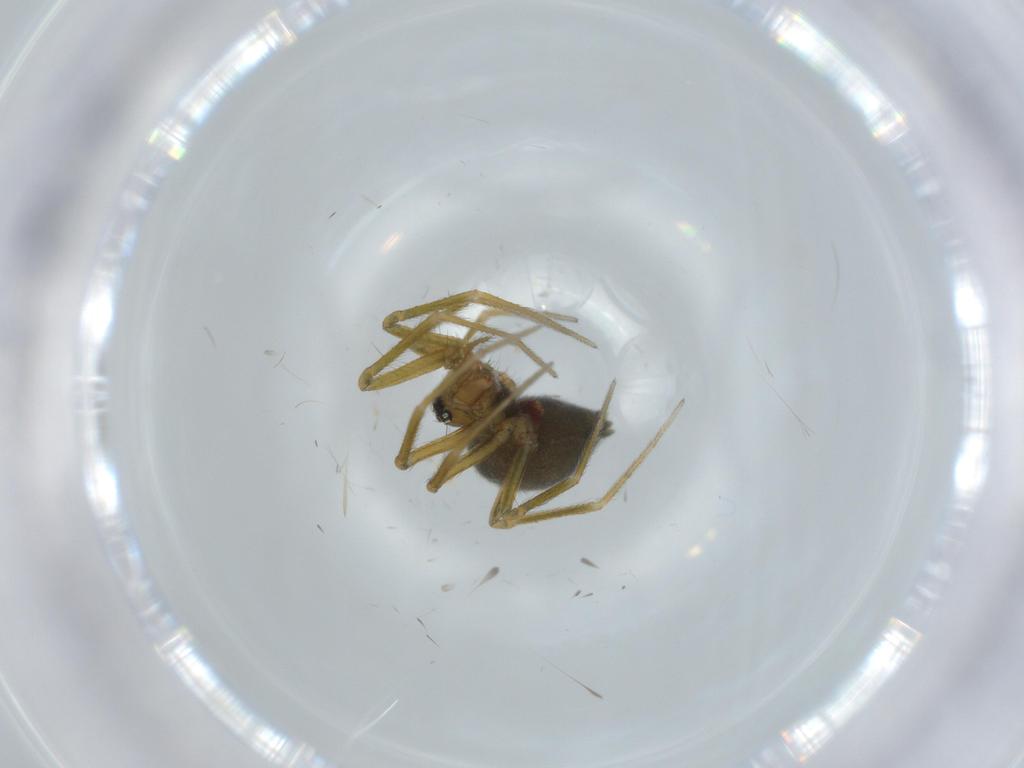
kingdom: Animalia
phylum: Arthropoda
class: Arachnida
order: Araneae
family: Linyphiidae
